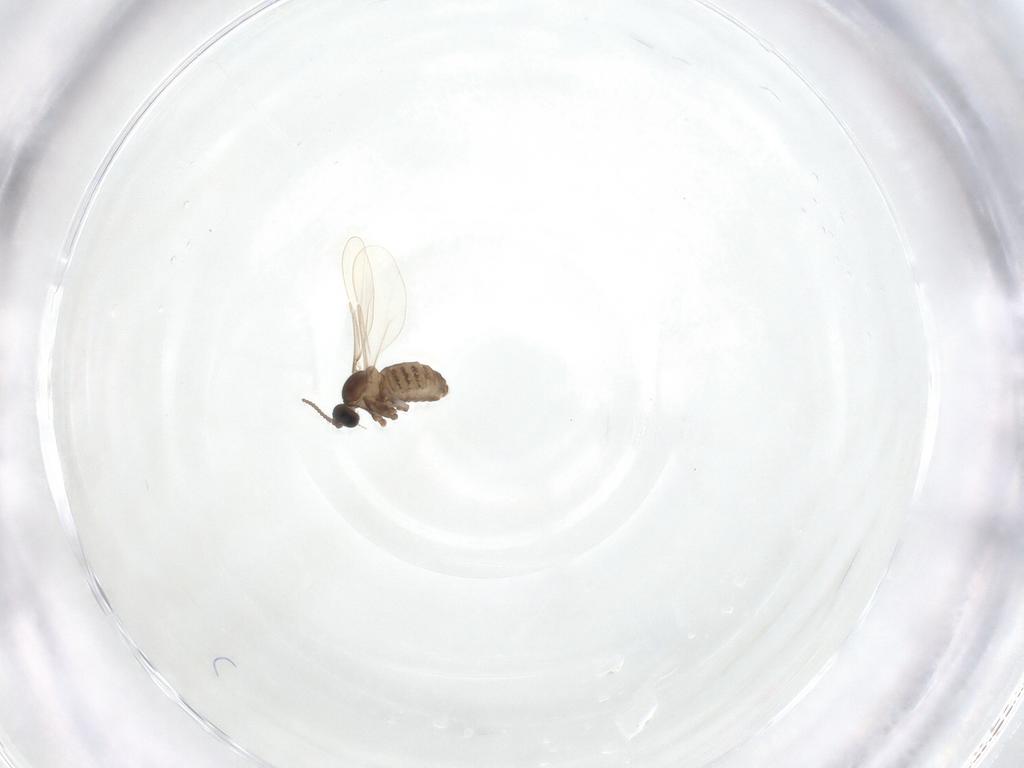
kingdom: Animalia
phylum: Arthropoda
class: Insecta
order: Diptera
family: Cecidomyiidae
